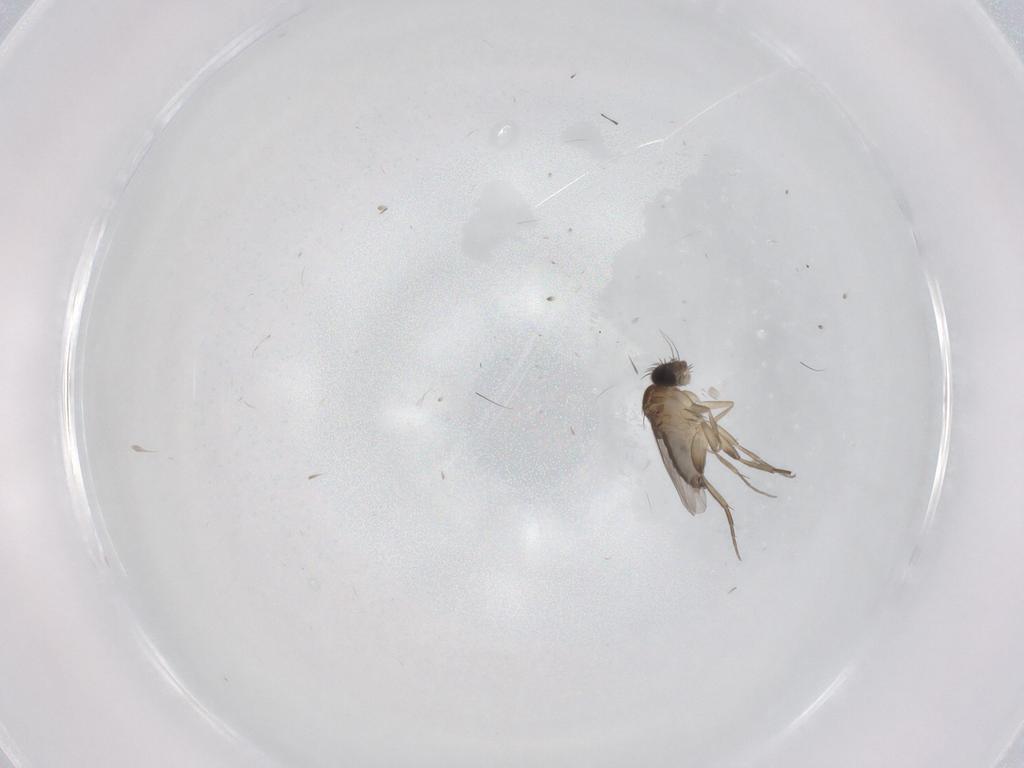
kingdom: Animalia
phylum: Arthropoda
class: Insecta
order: Diptera
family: Phoridae
